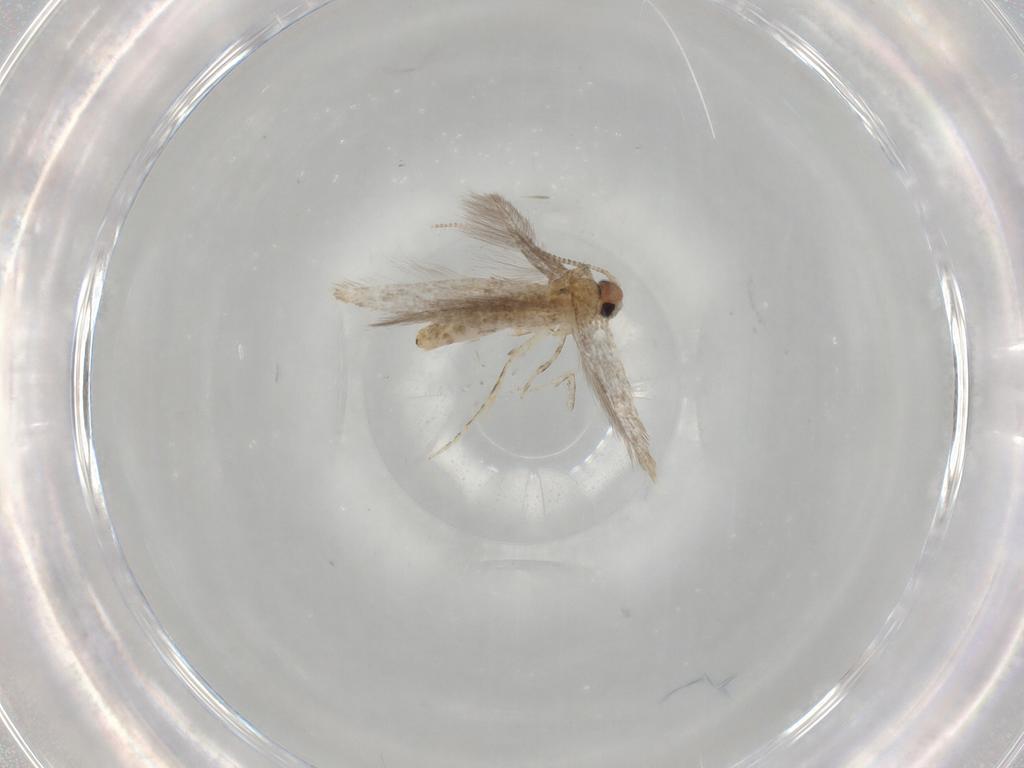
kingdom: Animalia
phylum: Arthropoda
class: Insecta
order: Lepidoptera
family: Tineidae
